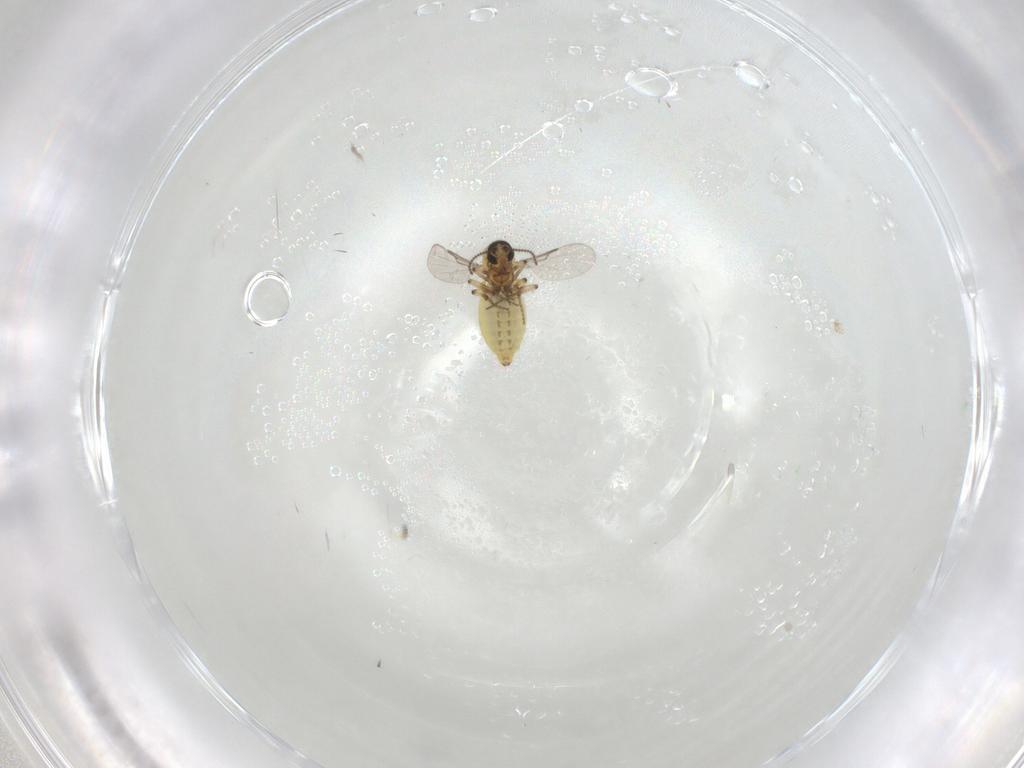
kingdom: Animalia
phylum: Arthropoda
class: Insecta
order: Diptera
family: Ceratopogonidae
